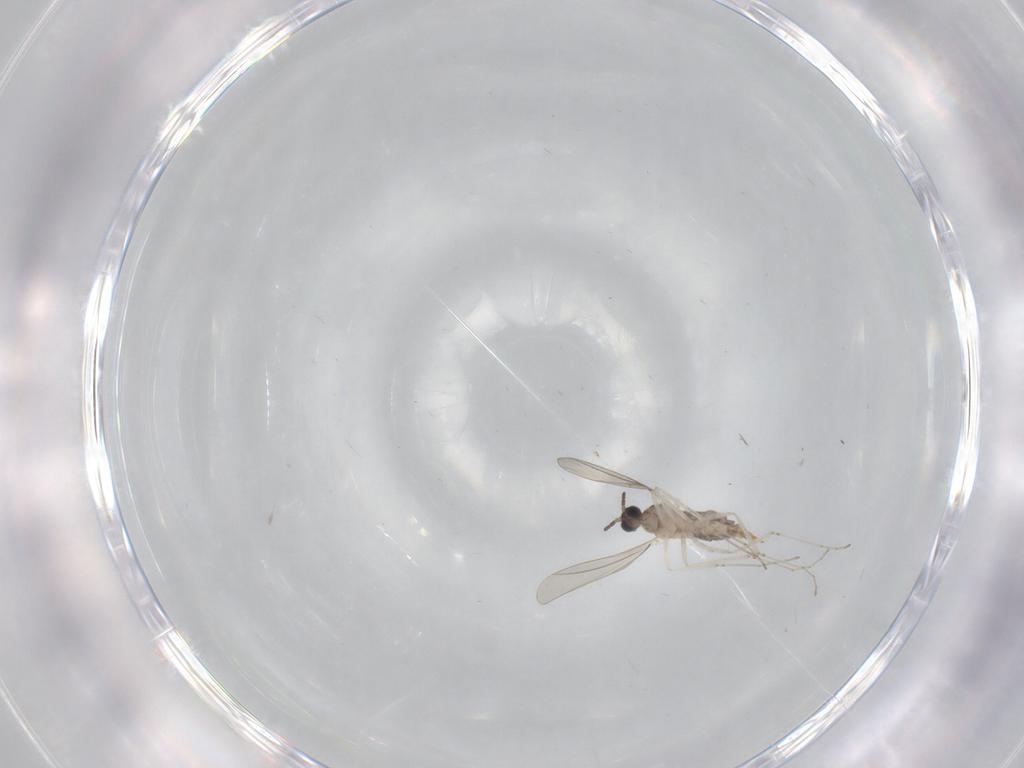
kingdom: Animalia
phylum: Arthropoda
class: Insecta
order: Diptera
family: Cecidomyiidae
